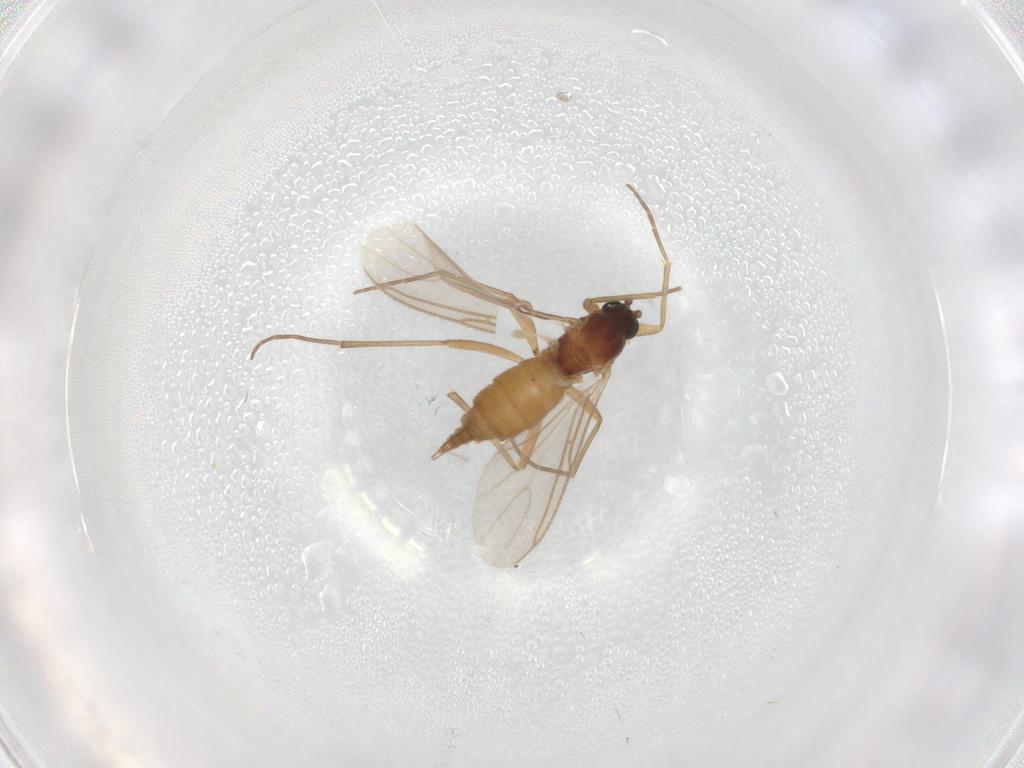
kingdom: Animalia
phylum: Arthropoda
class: Insecta
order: Diptera
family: Sciaridae
